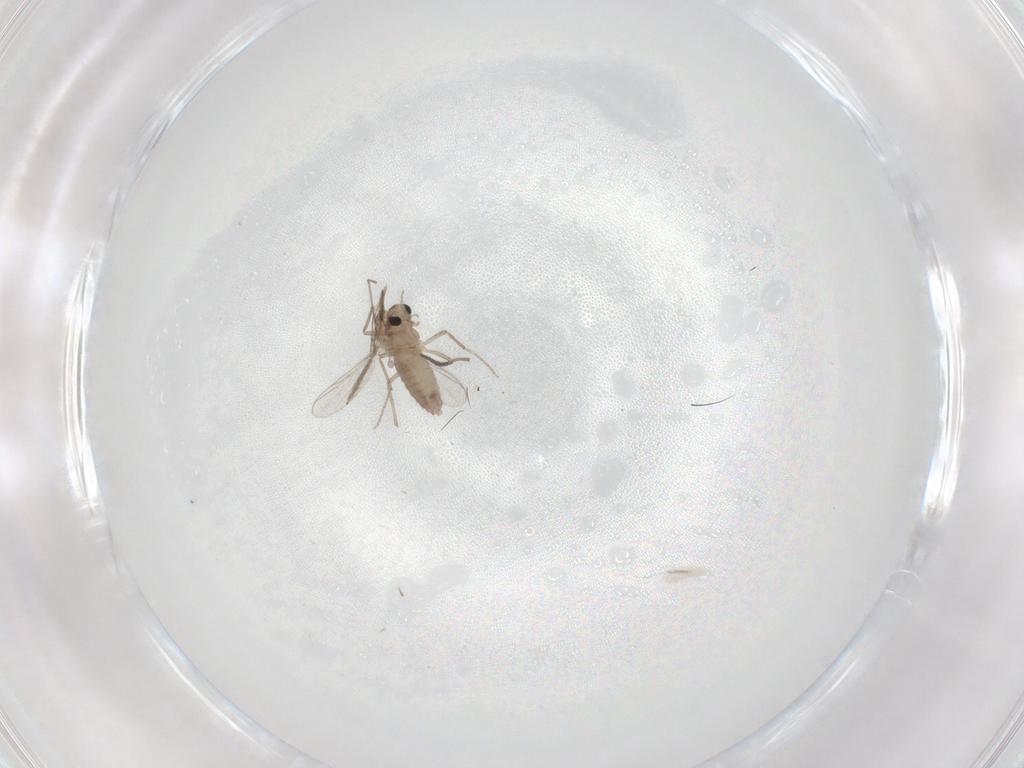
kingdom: Animalia
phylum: Arthropoda
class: Insecta
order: Diptera
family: Chironomidae
